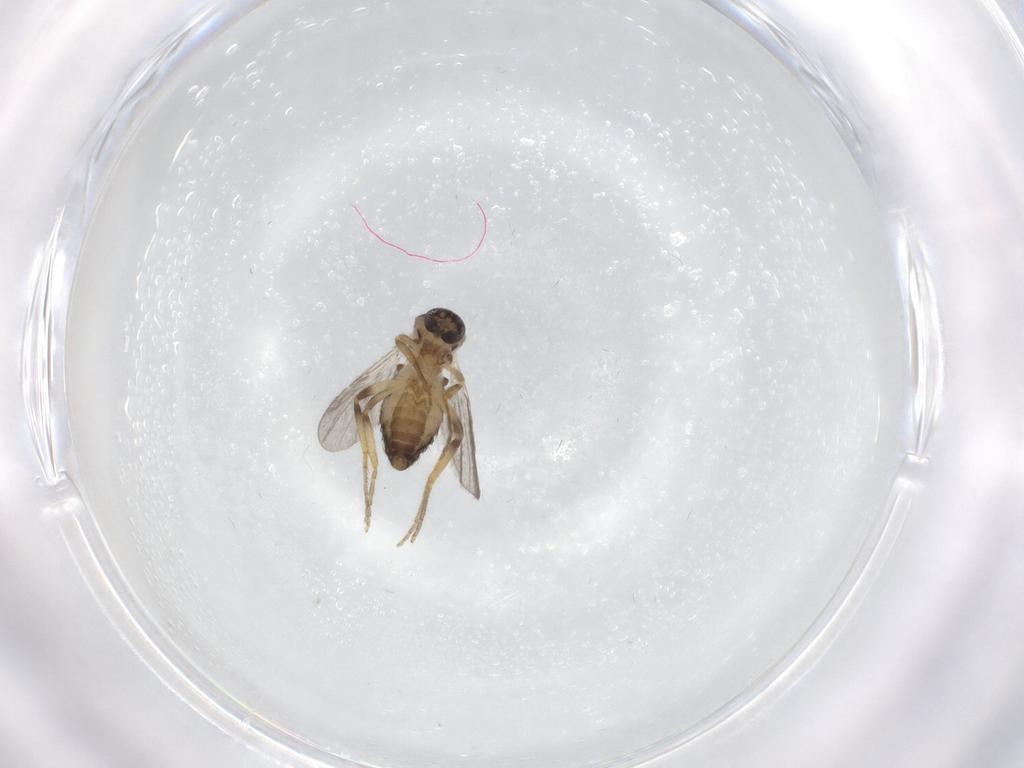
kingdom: Animalia
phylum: Arthropoda
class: Insecta
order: Diptera
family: Ceratopogonidae
